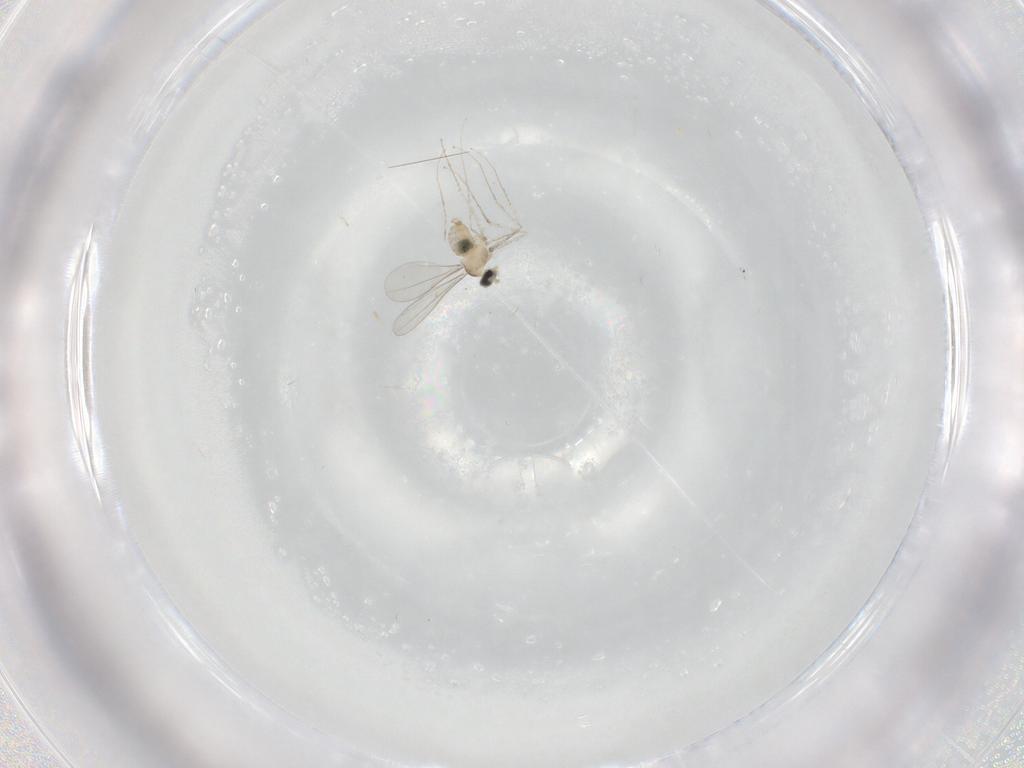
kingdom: Animalia
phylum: Arthropoda
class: Insecta
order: Diptera
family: Cecidomyiidae
